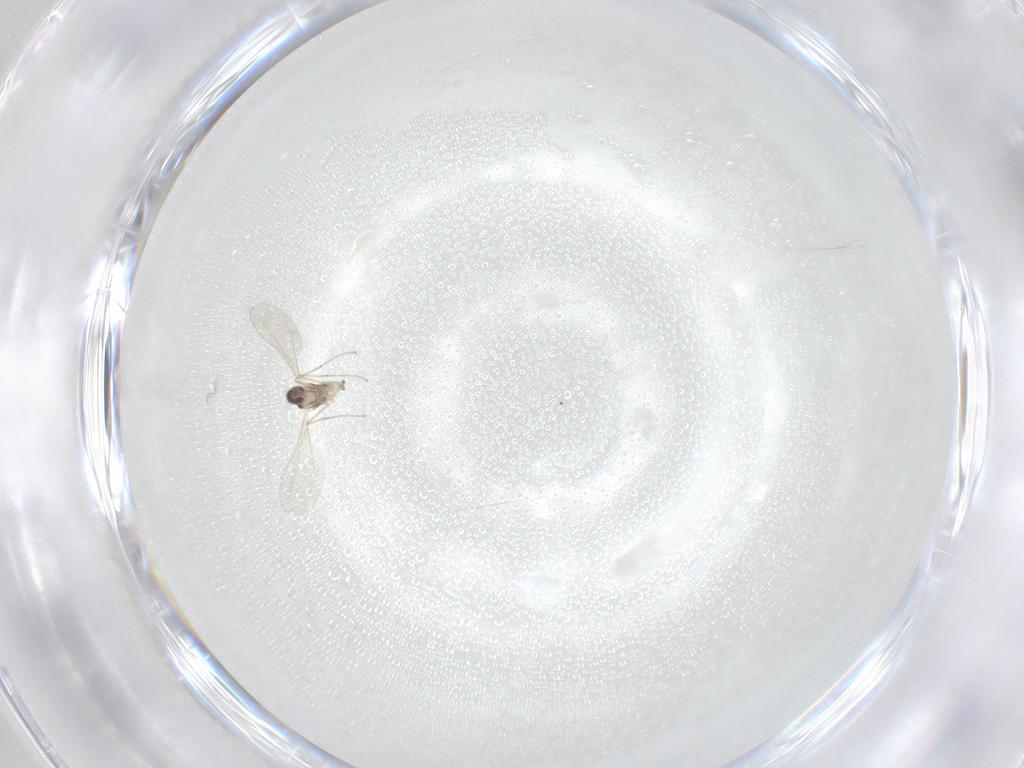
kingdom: Animalia
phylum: Arthropoda
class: Insecta
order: Diptera
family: Cecidomyiidae
